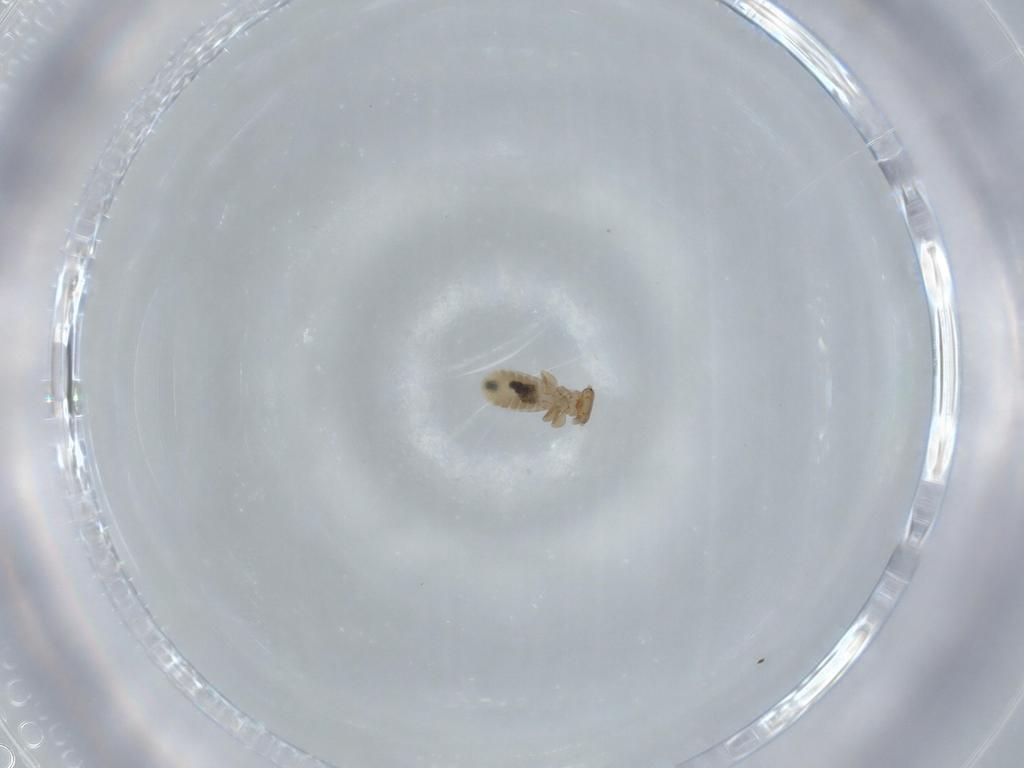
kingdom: Animalia
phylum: Arthropoda
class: Insecta
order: Psocodea
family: Liposcelididae
